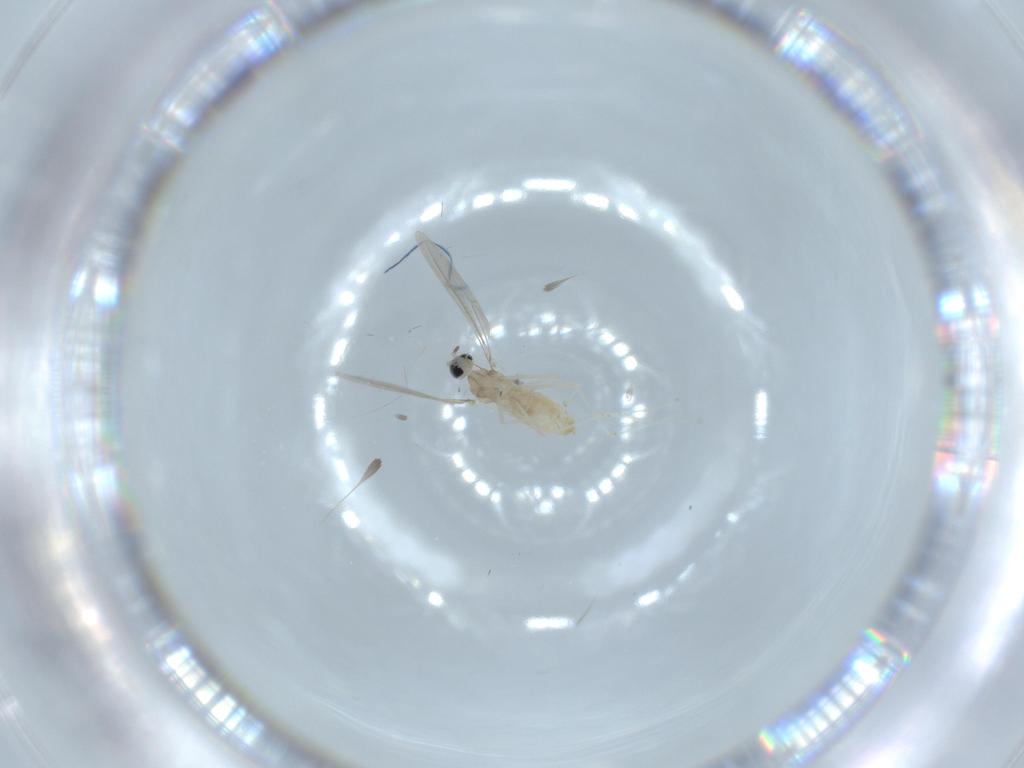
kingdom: Animalia
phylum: Arthropoda
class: Insecta
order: Diptera
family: Cecidomyiidae
